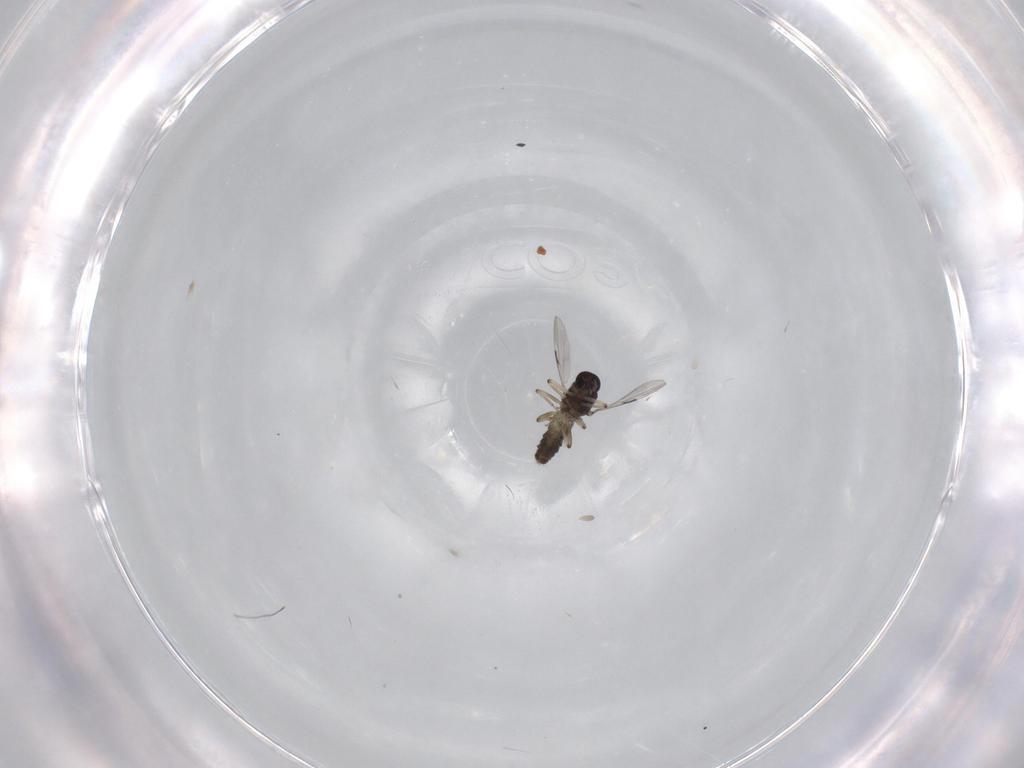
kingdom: Animalia
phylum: Arthropoda
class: Insecta
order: Diptera
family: Ceratopogonidae
